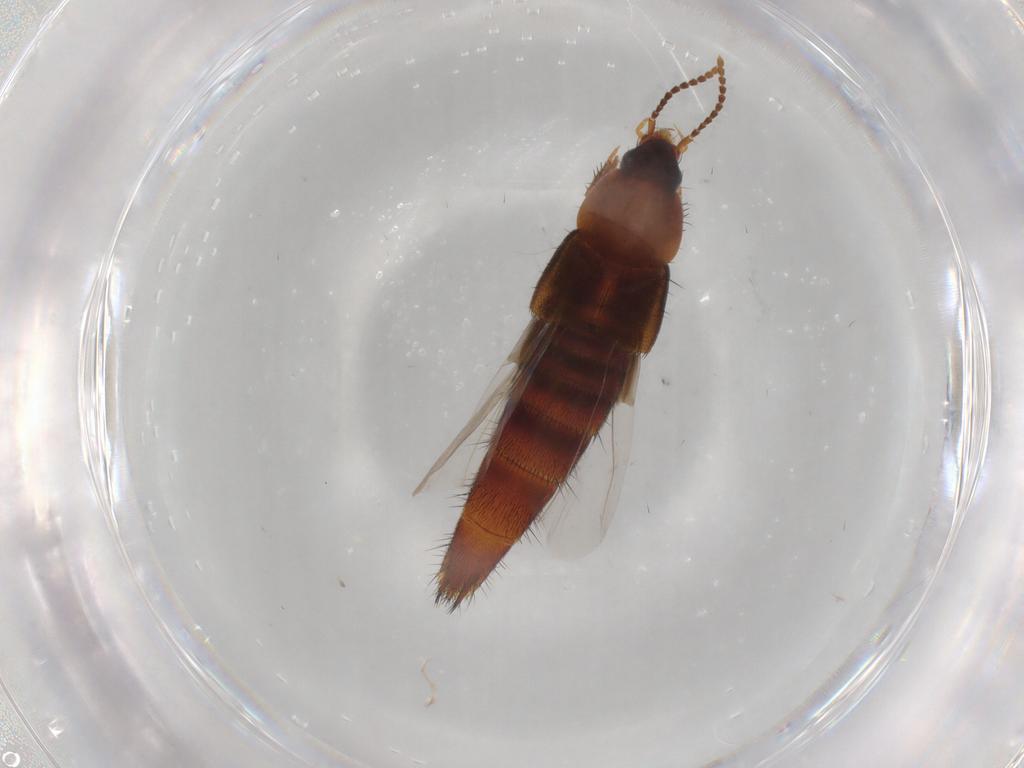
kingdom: Animalia
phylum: Arthropoda
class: Insecta
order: Coleoptera
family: Staphylinidae
